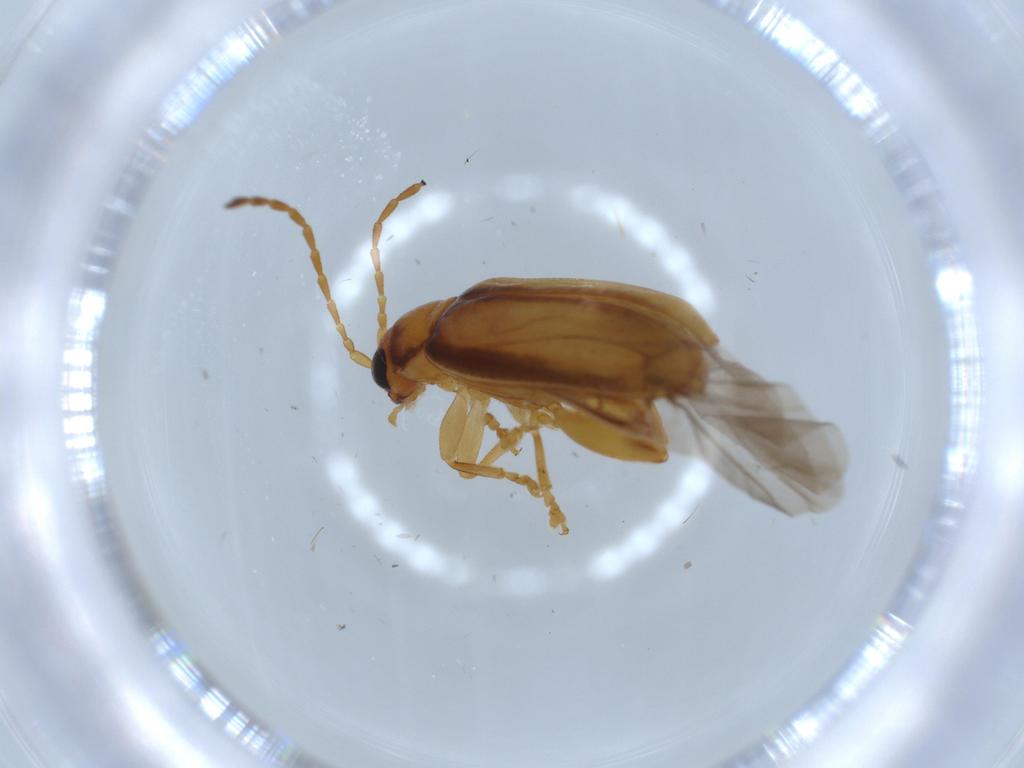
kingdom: Animalia
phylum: Arthropoda
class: Insecta
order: Coleoptera
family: Chrysomelidae
